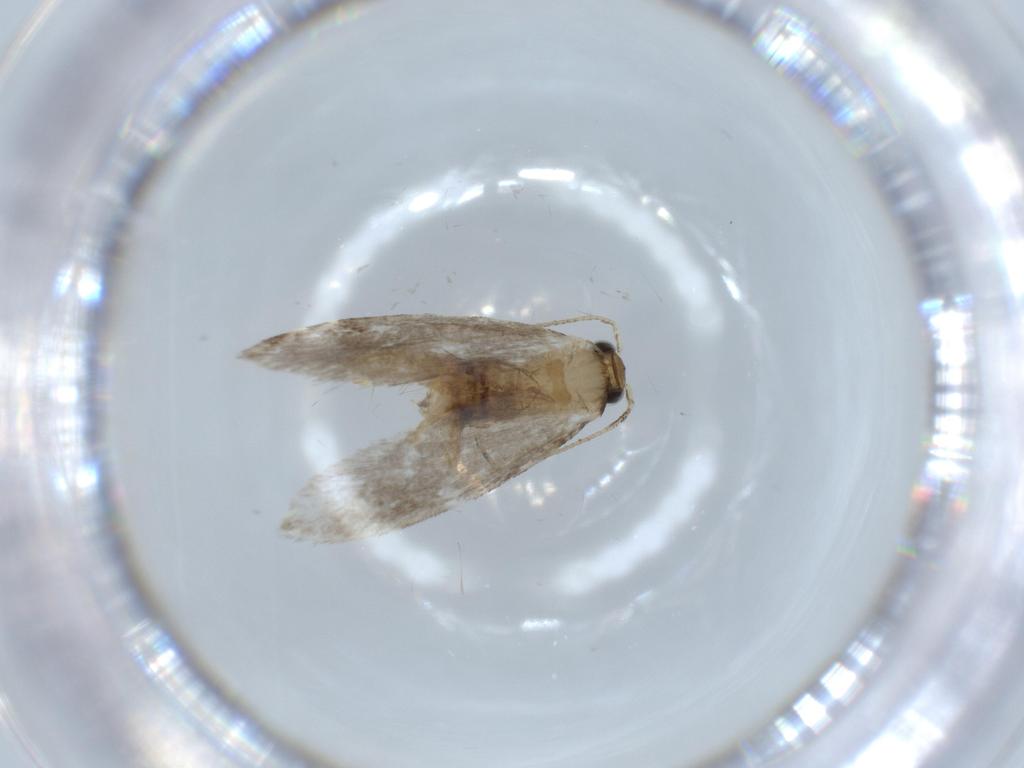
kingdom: Animalia
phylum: Arthropoda
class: Insecta
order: Lepidoptera
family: Tineidae
